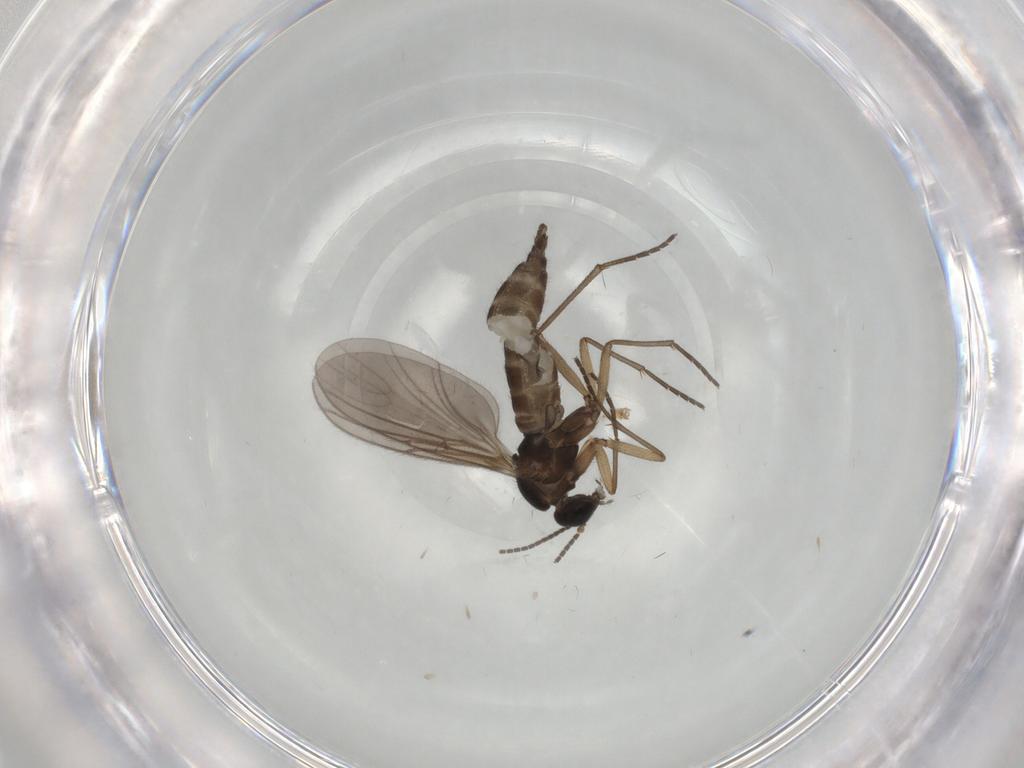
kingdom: Animalia
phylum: Arthropoda
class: Insecta
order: Diptera
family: Sciaridae
